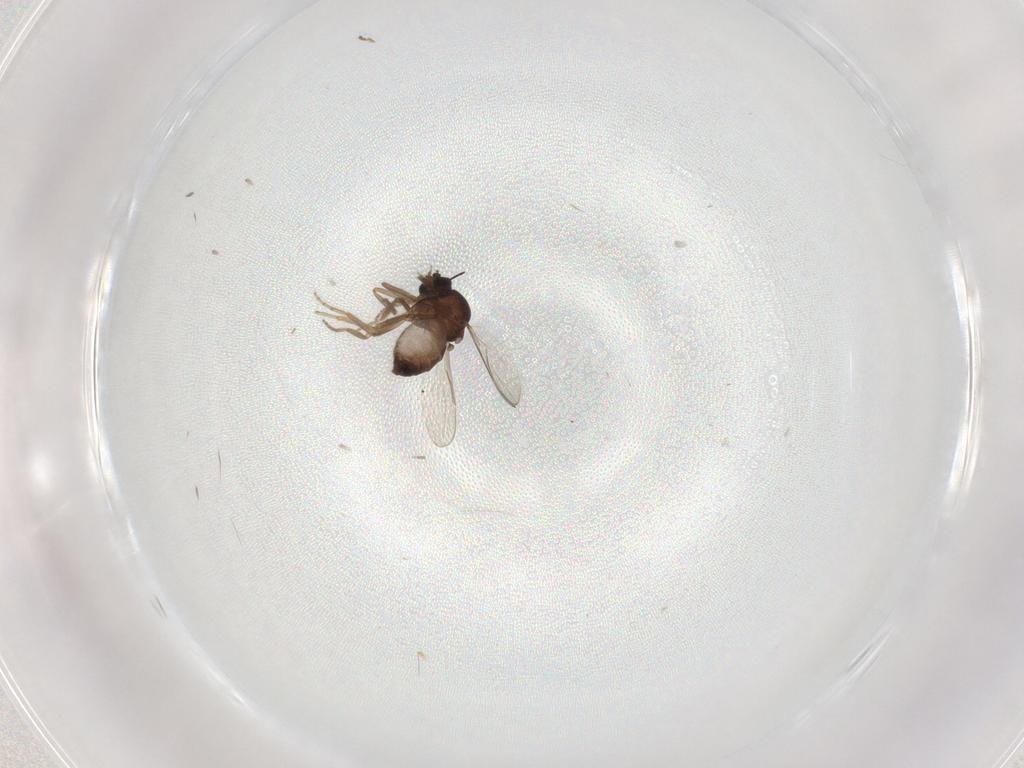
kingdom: Animalia
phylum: Arthropoda
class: Insecta
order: Diptera
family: Ceratopogonidae
